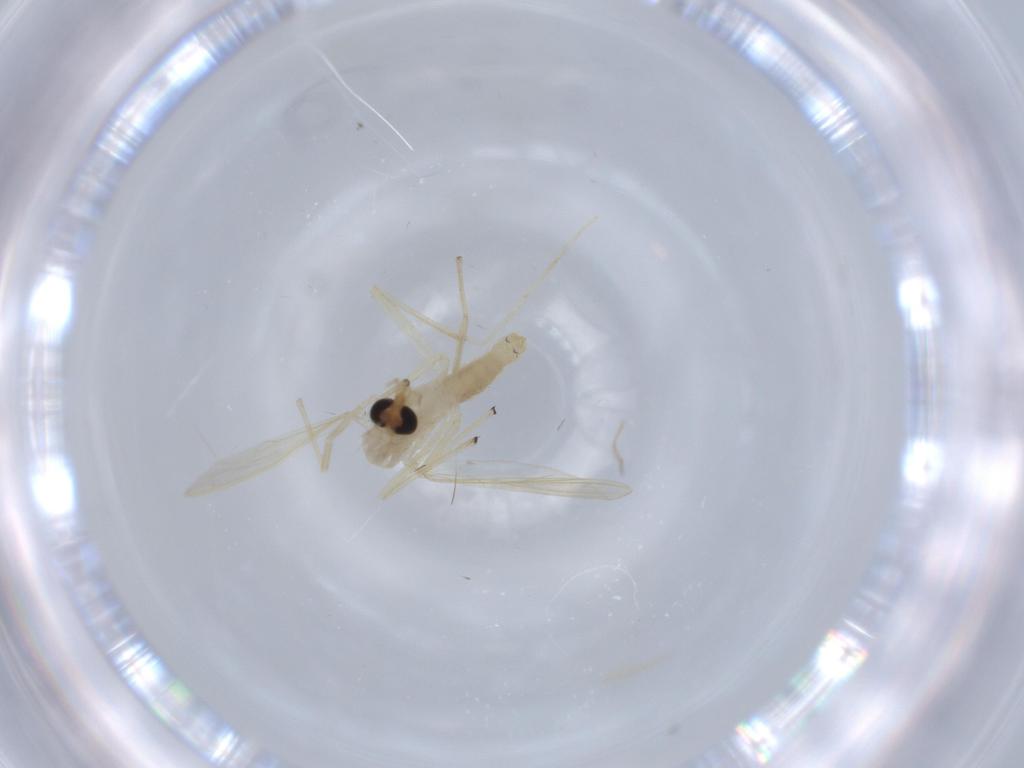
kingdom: Animalia
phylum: Arthropoda
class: Insecta
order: Diptera
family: Chironomidae
